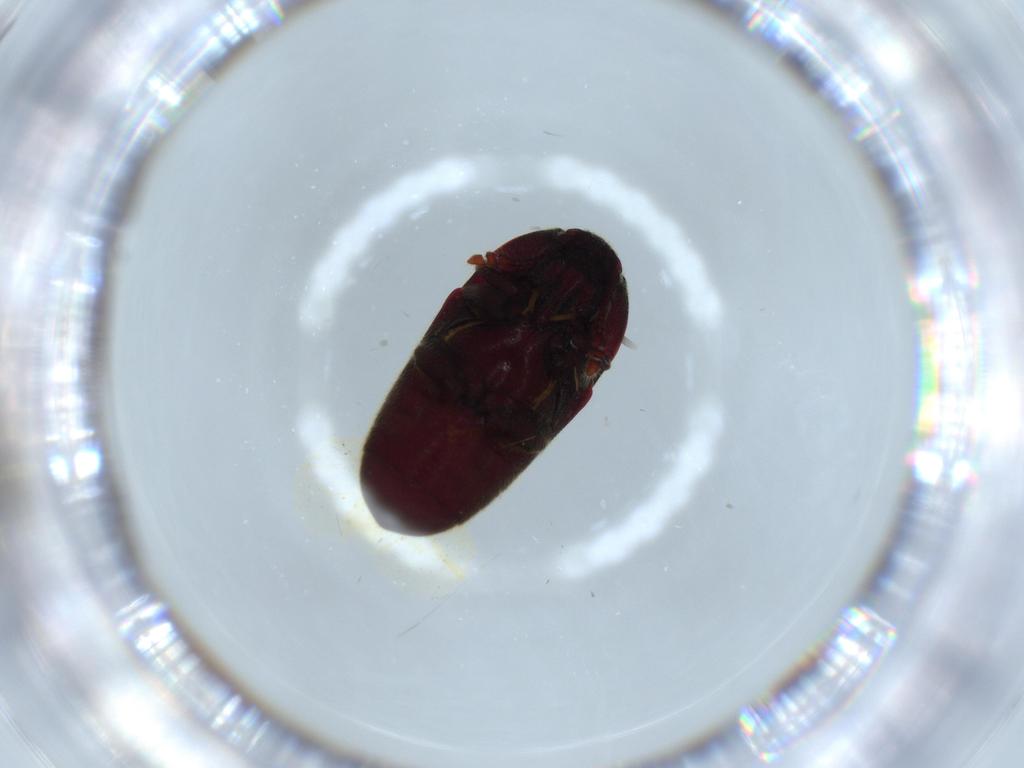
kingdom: Animalia
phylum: Arthropoda
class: Insecta
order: Coleoptera
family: Throscidae
